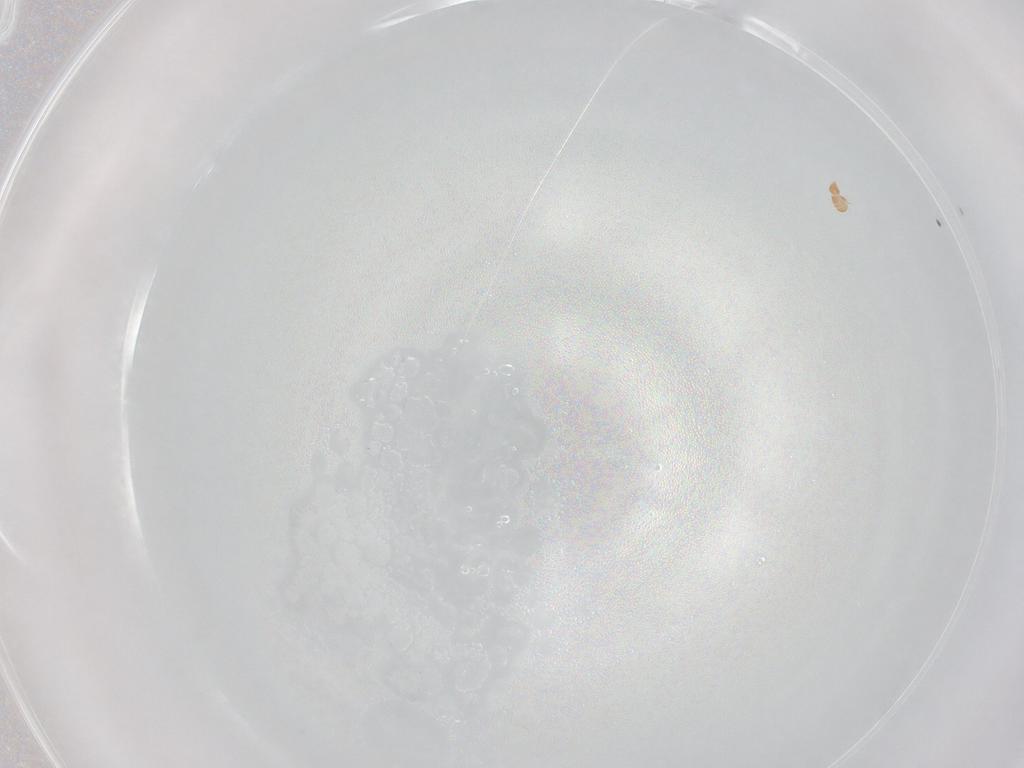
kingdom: Animalia
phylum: Arthropoda
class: Arachnida
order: Sarcoptiformes
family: Brachychthoniidae
